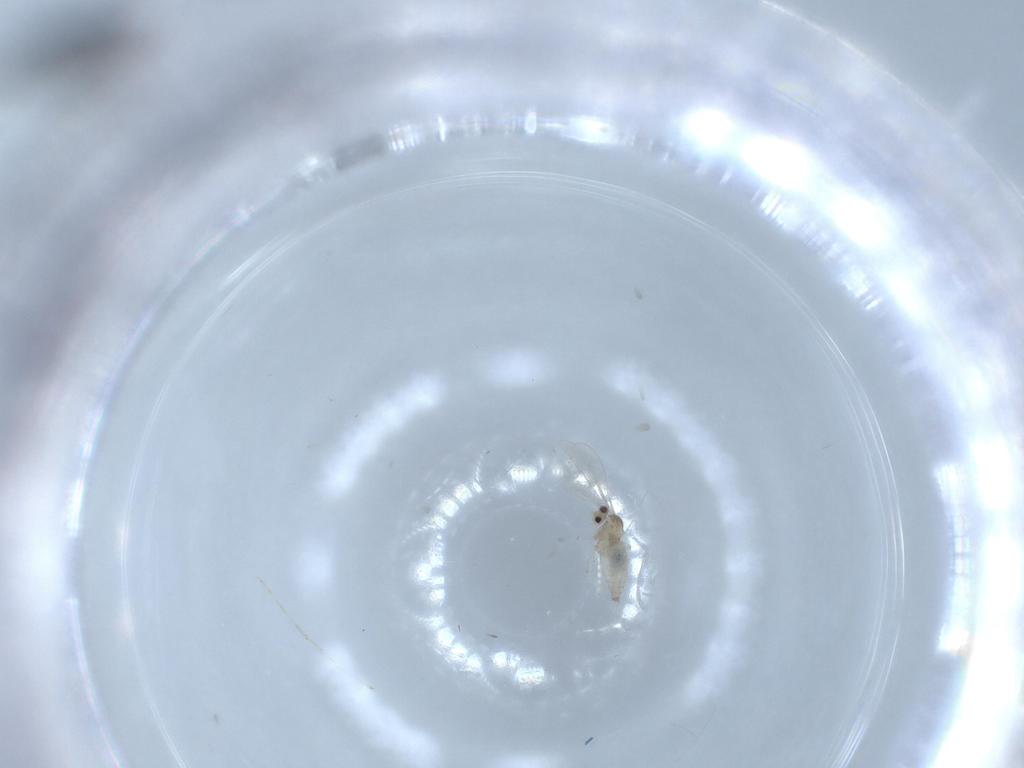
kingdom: Animalia
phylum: Arthropoda
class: Insecta
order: Diptera
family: Cecidomyiidae
